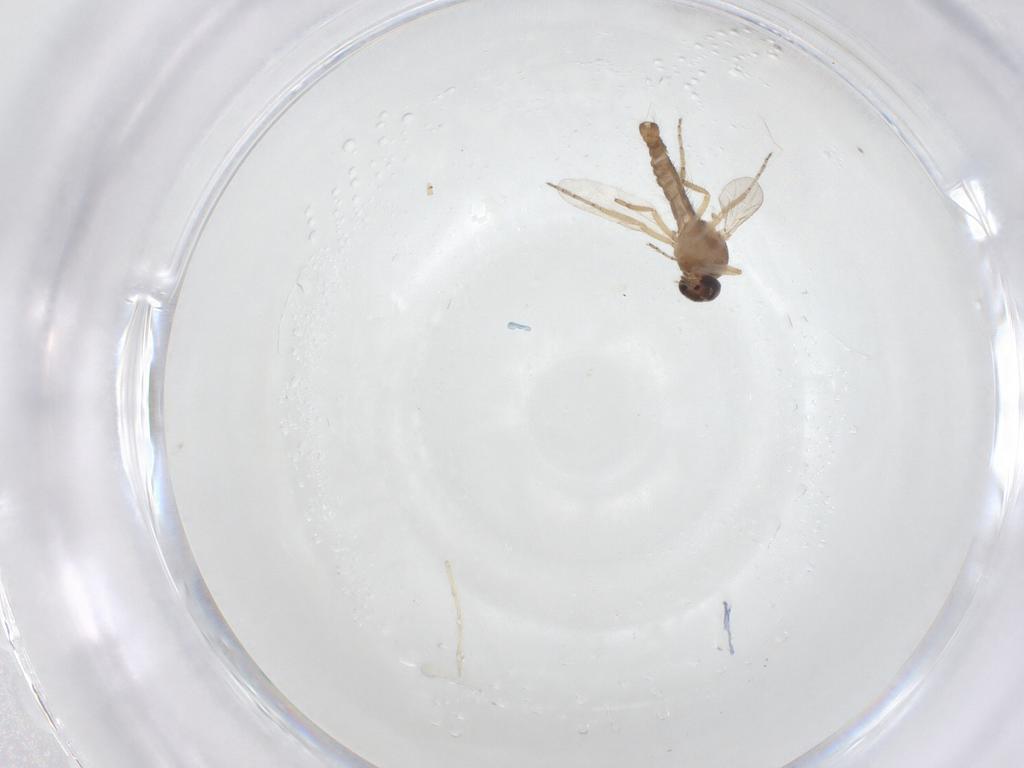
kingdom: Animalia
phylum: Arthropoda
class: Insecta
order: Diptera
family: Ceratopogonidae
